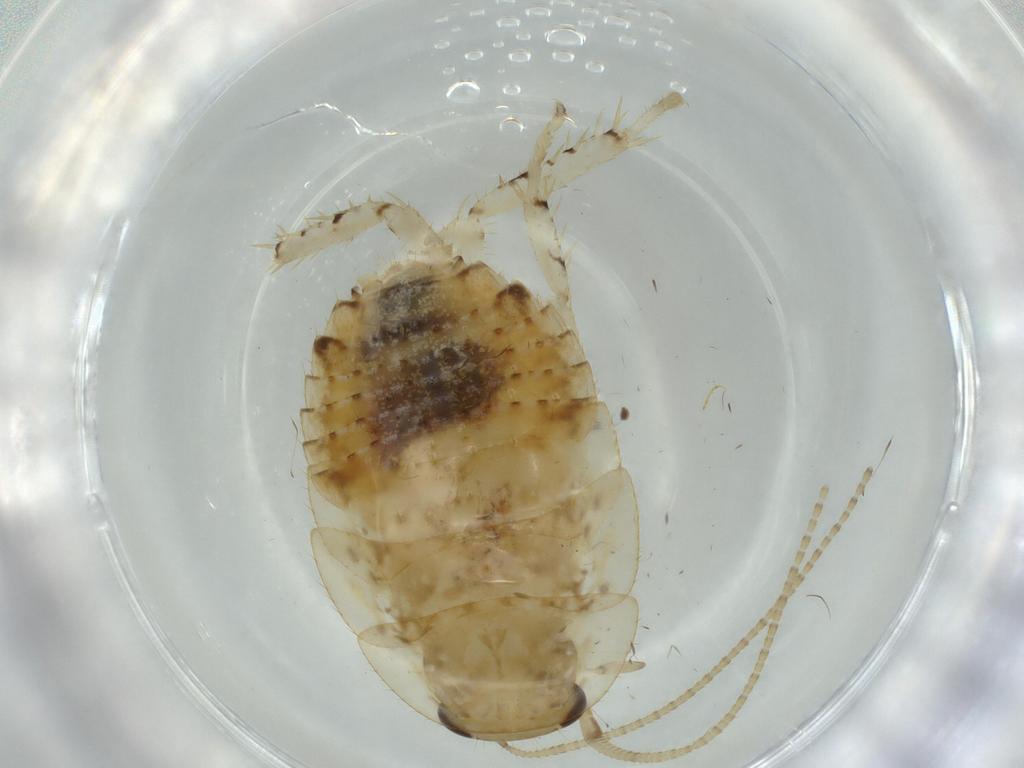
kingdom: Animalia
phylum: Arthropoda
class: Insecta
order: Blattodea
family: Ectobiidae
